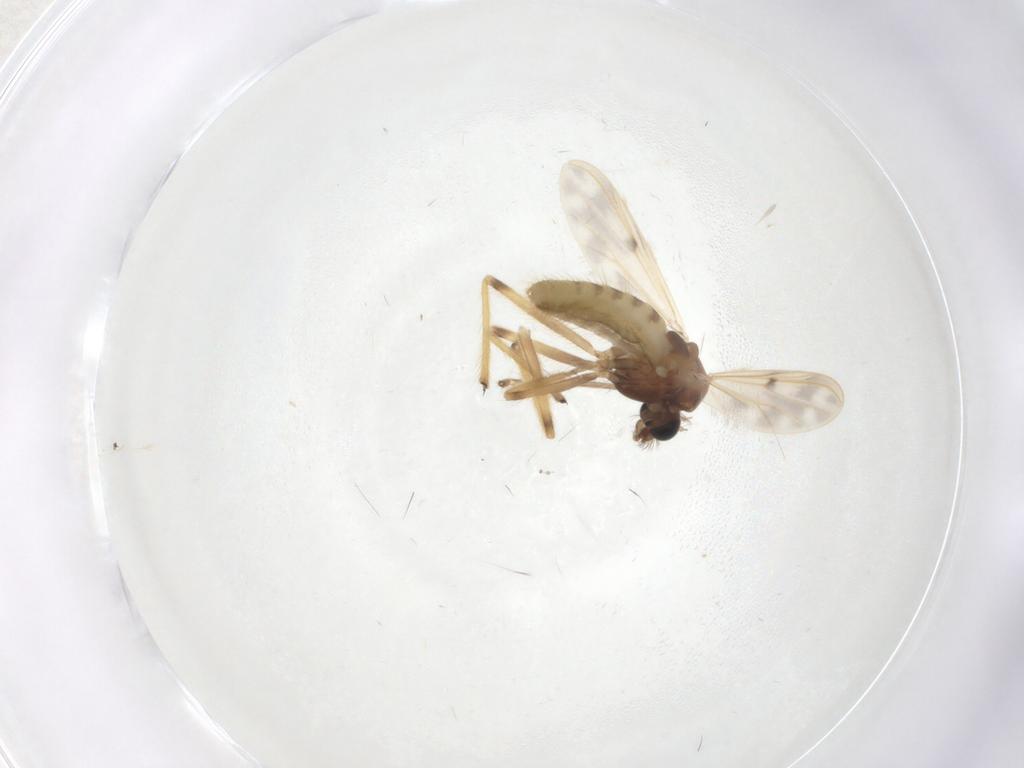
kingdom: Animalia
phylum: Arthropoda
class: Insecta
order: Diptera
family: Chironomidae
